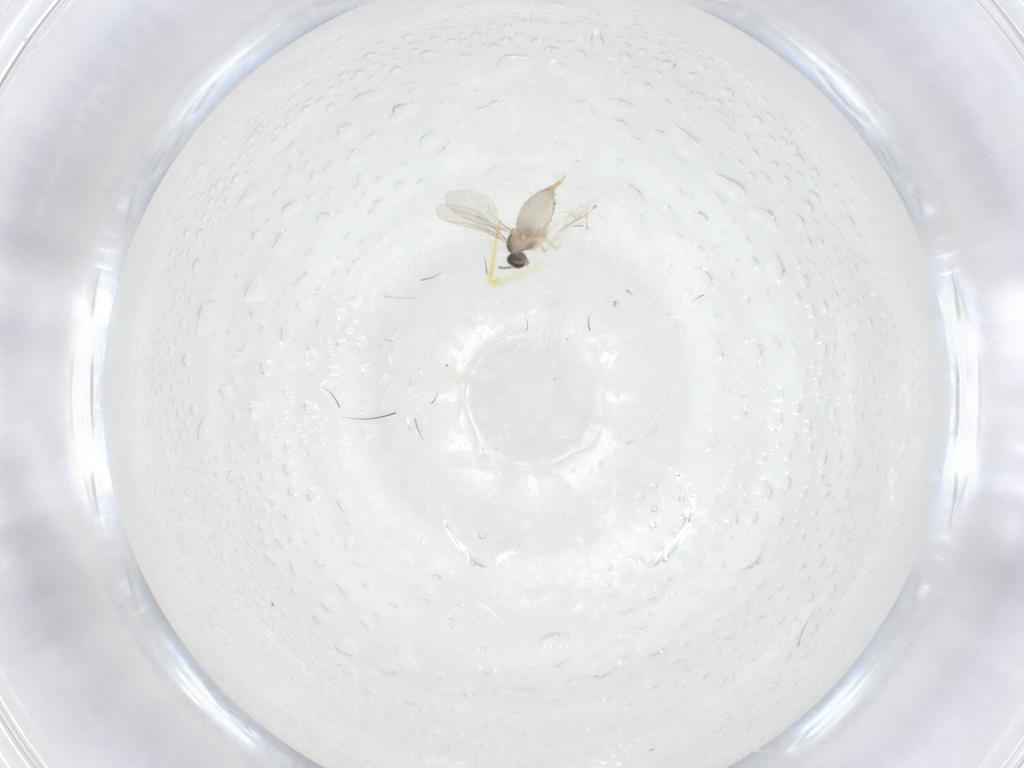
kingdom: Animalia
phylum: Arthropoda
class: Insecta
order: Diptera
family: Cecidomyiidae
